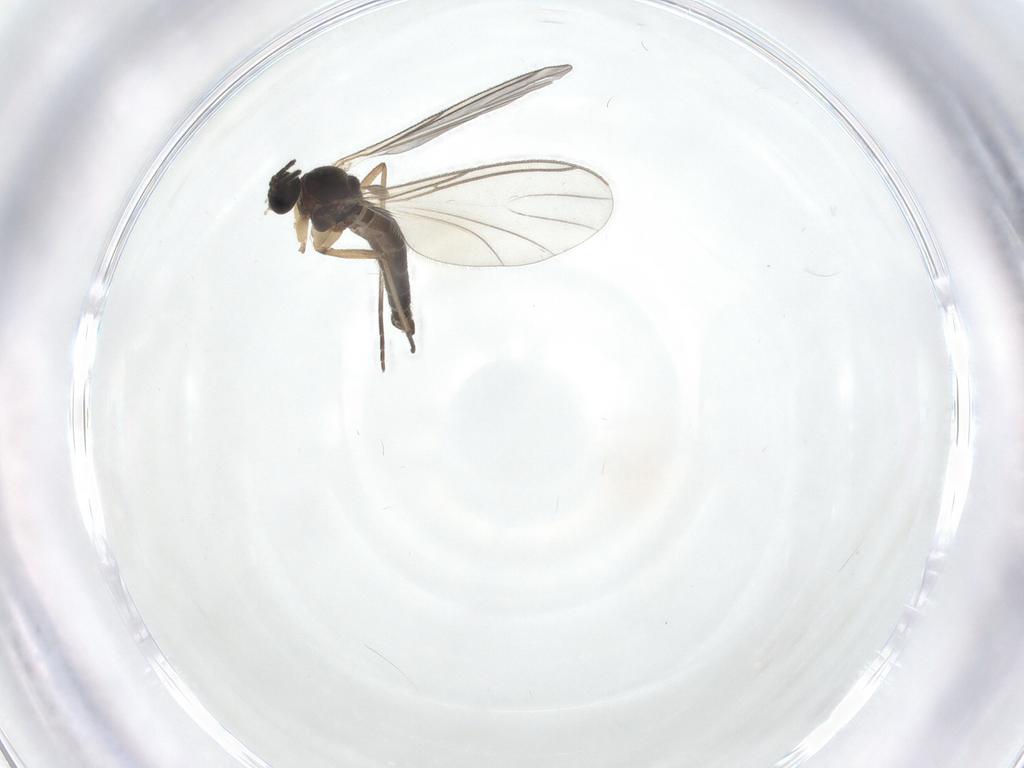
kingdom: Animalia
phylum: Arthropoda
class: Insecta
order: Diptera
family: Sciaridae
